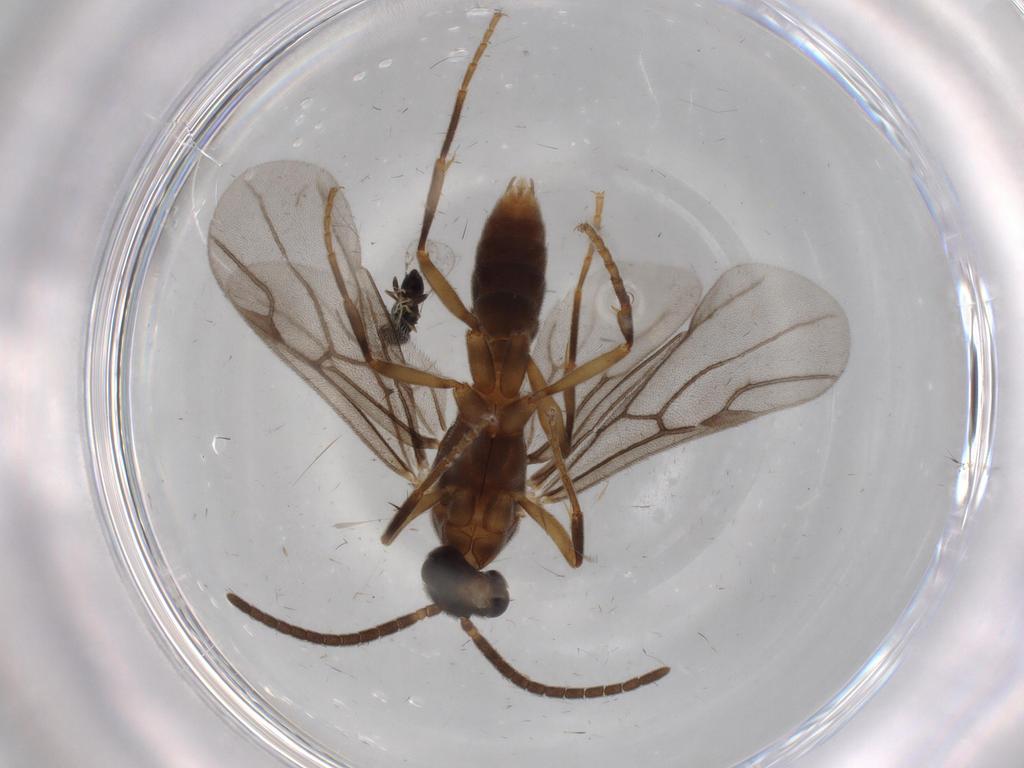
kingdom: Animalia
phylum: Arthropoda
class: Insecta
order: Hymenoptera
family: Formicidae
